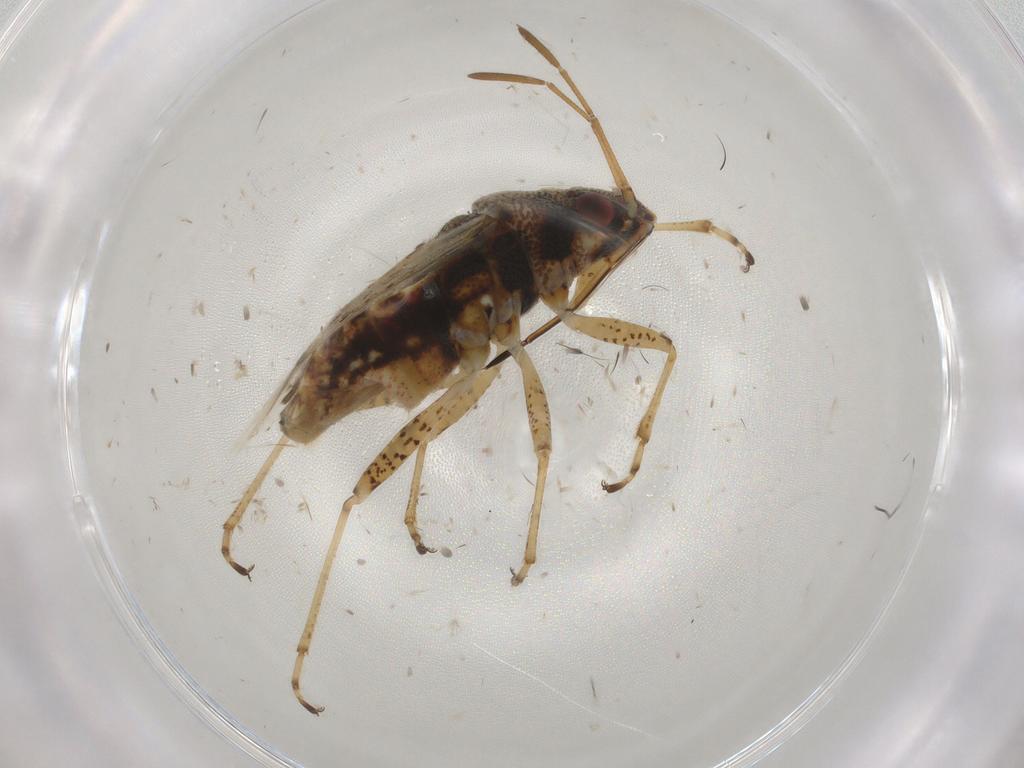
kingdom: Animalia
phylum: Arthropoda
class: Insecta
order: Hemiptera
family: Lygaeidae
